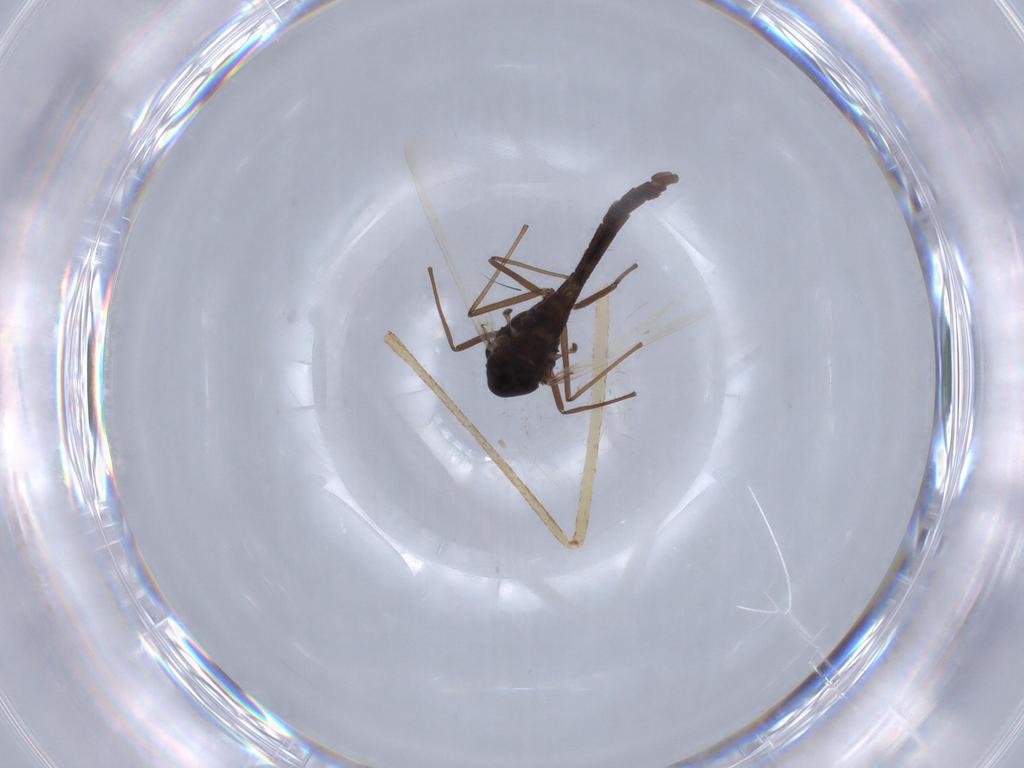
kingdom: Animalia
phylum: Arthropoda
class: Insecta
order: Diptera
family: Chironomidae
